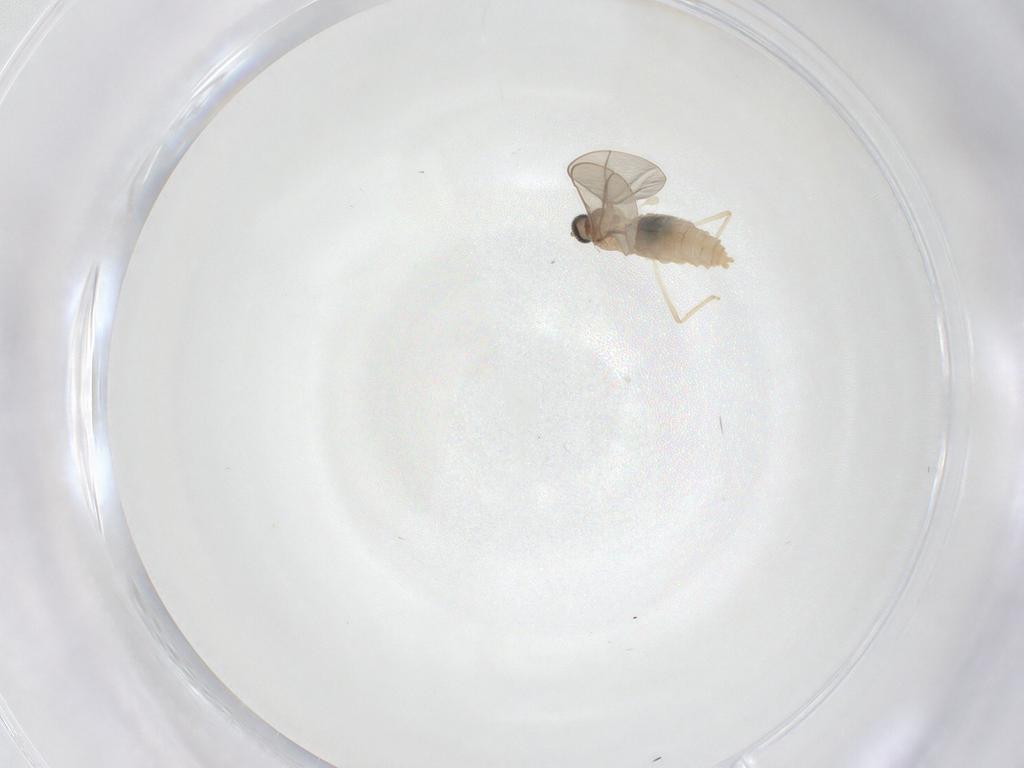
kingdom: Animalia
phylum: Arthropoda
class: Insecta
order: Diptera
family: Cecidomyiidae
